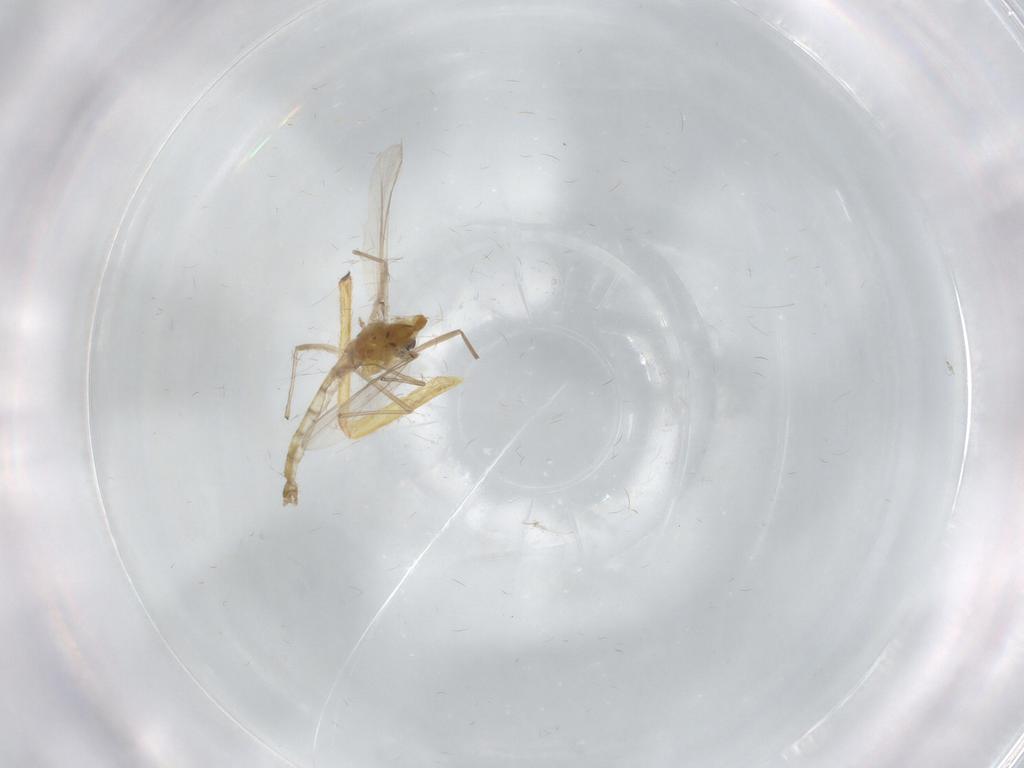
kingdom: Animalia
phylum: Arthropoda
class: Insecta
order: Diptera
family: Chironomidae
